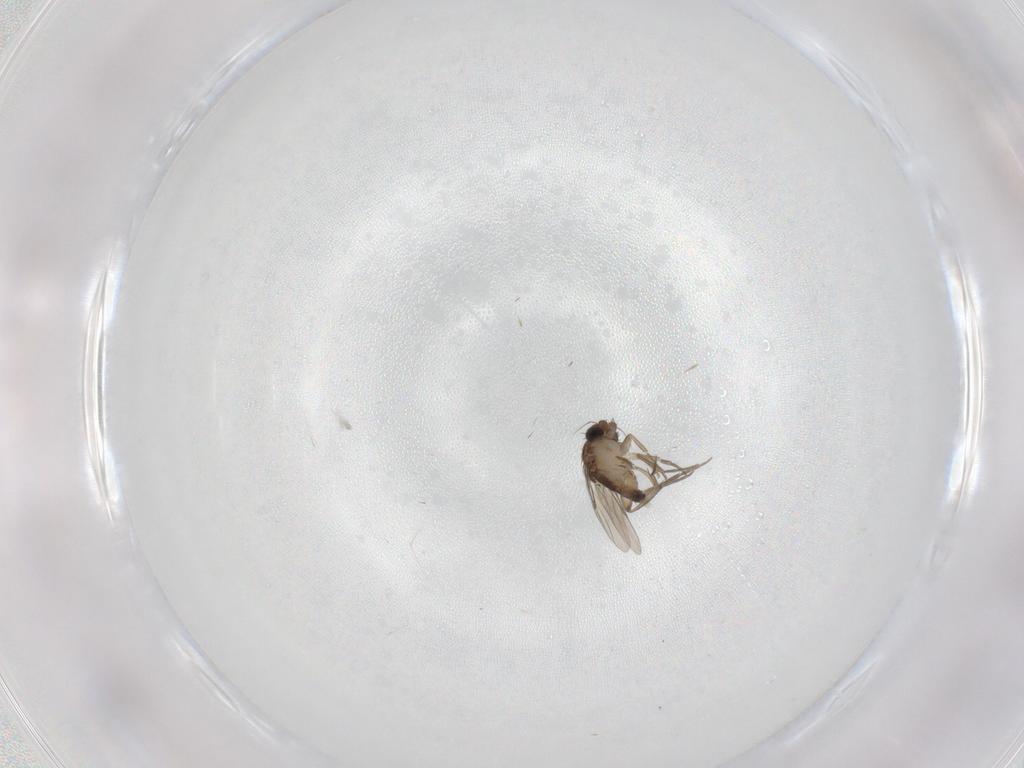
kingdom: Animalia
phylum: Arthropoda
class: Insecta
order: Diptera
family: Phoridae
